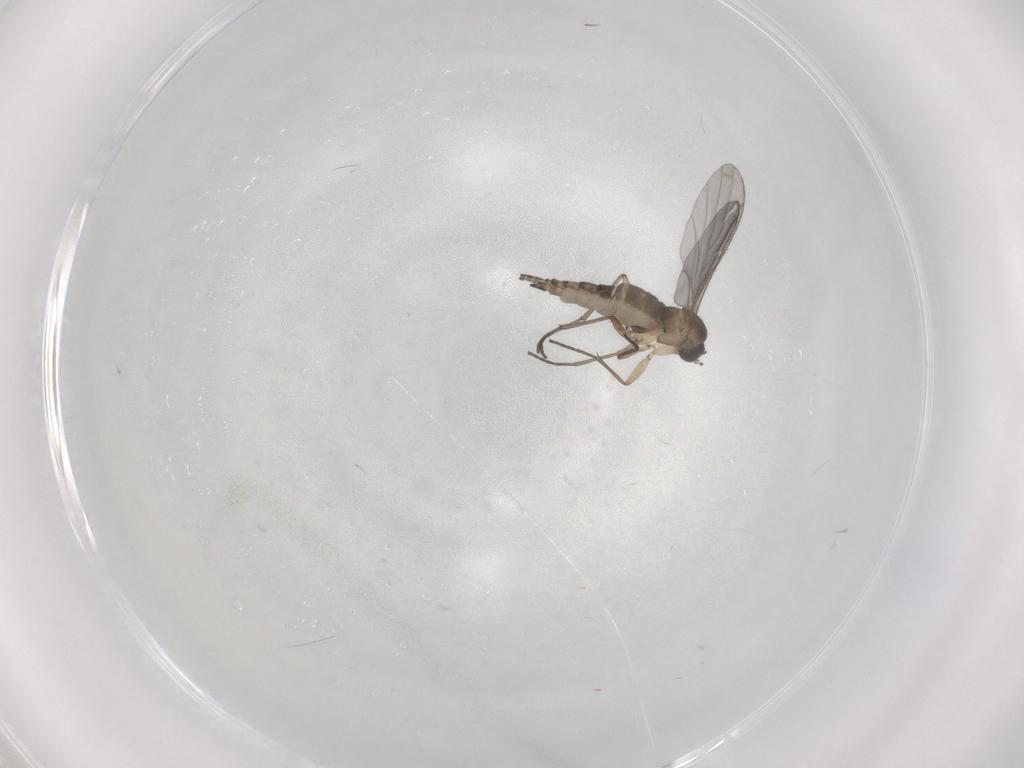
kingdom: Animalia
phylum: Arthropoda
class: Insecta
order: Diptera
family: Sciaridae
